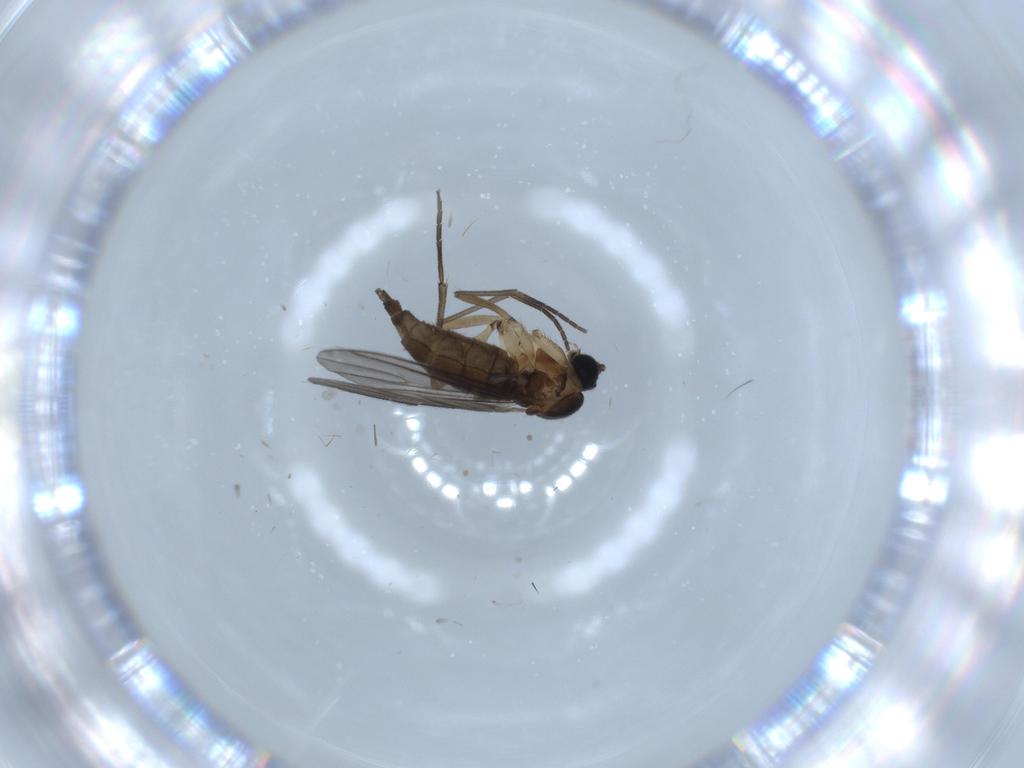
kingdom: Animalia
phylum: Arthropoda
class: Insecta
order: Diptera
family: Sciaridae
